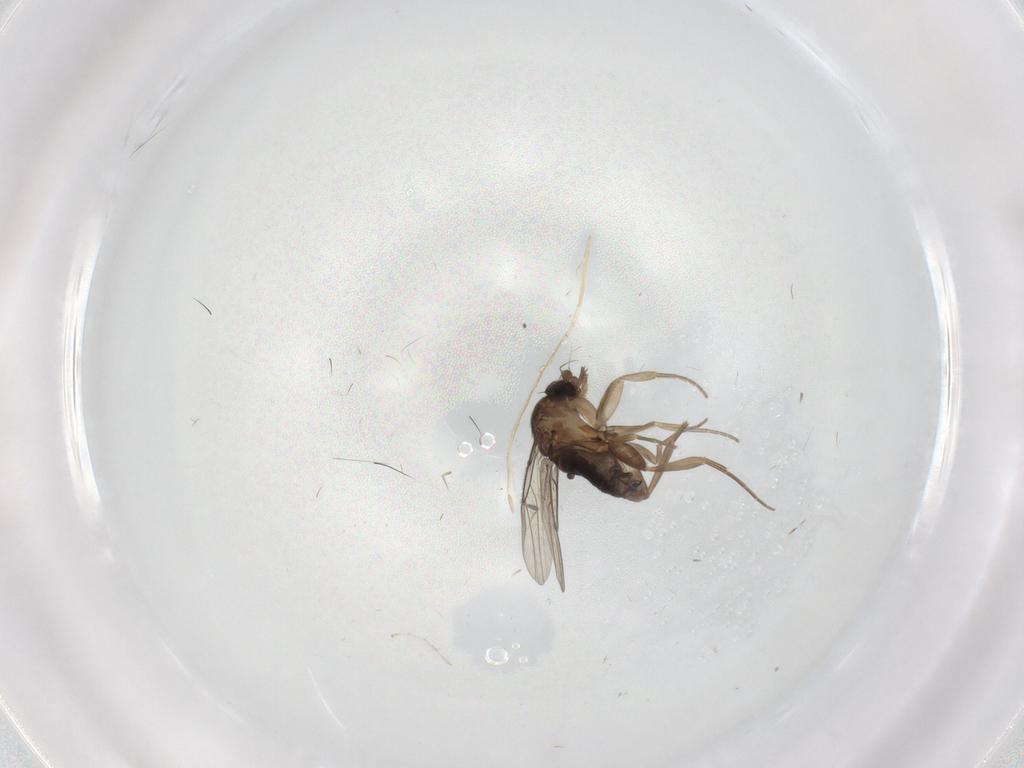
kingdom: Animalia
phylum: Arthropoda
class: Insecta
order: Diptera
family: Phoridae
